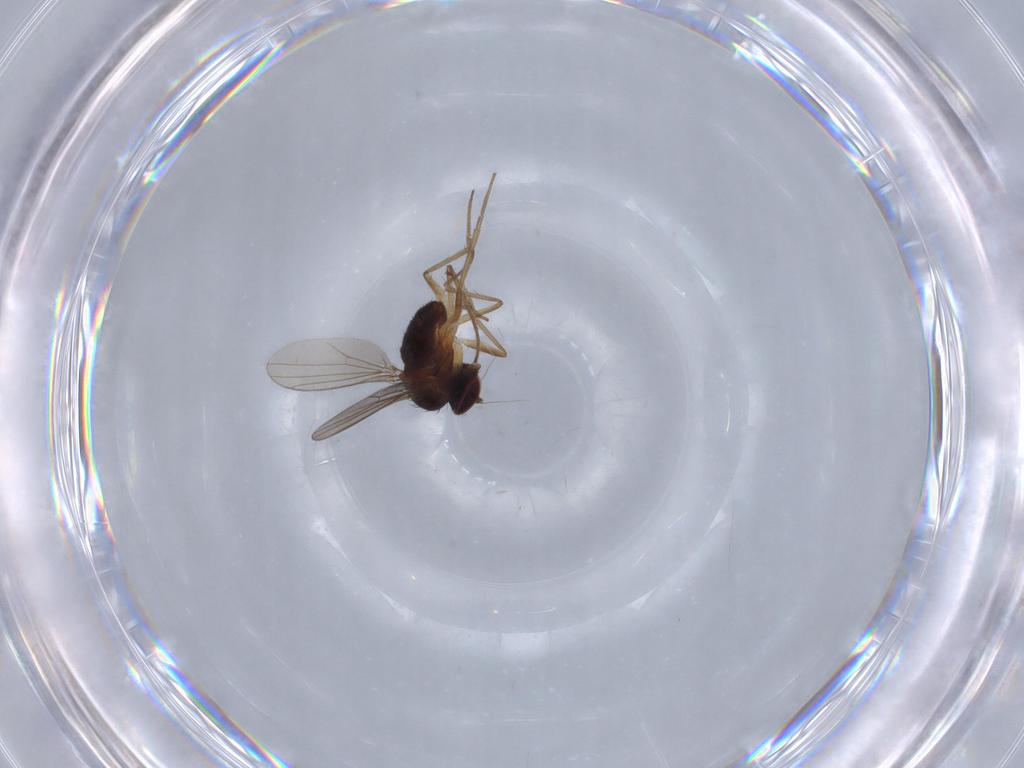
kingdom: Animalia
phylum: Arthropoda
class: Insecta
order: Diptera
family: Dolichopodidae
